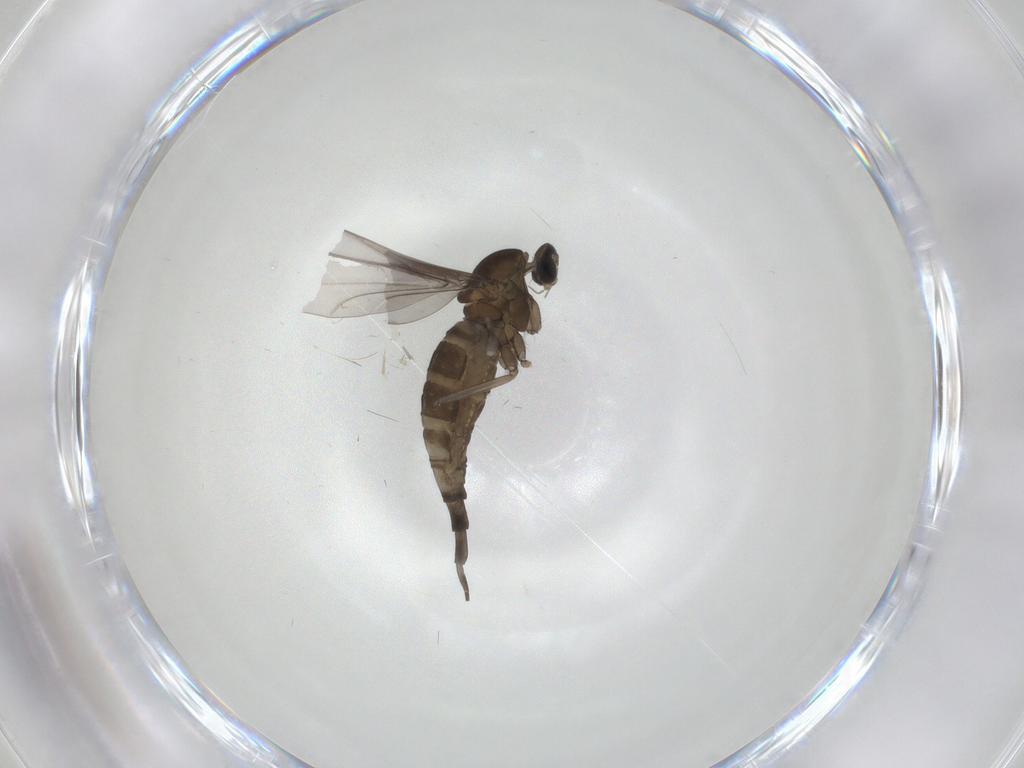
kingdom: Animalia
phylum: Arthropoda
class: Insecta
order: Diptera
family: Cecidomyiidae
